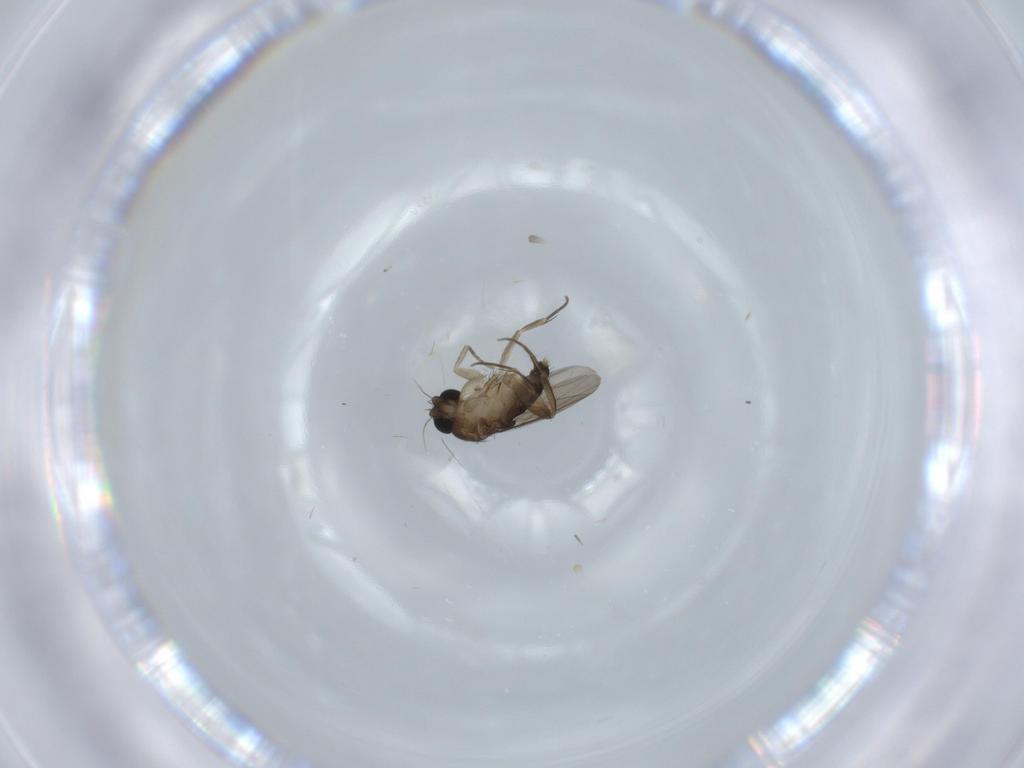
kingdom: Animalia
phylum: Arthropoda
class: Insecta
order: Diptera
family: Phoridae
